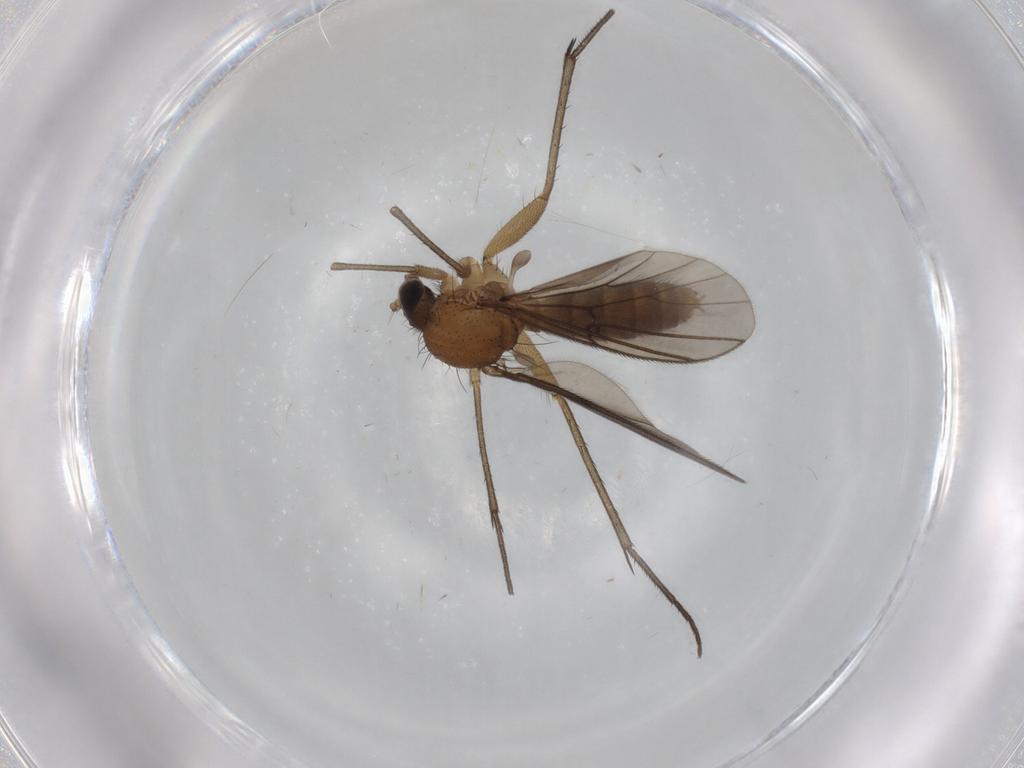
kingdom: Animalia
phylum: Arthropoda
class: Insecta
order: Diptera
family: Mycetophilidae
